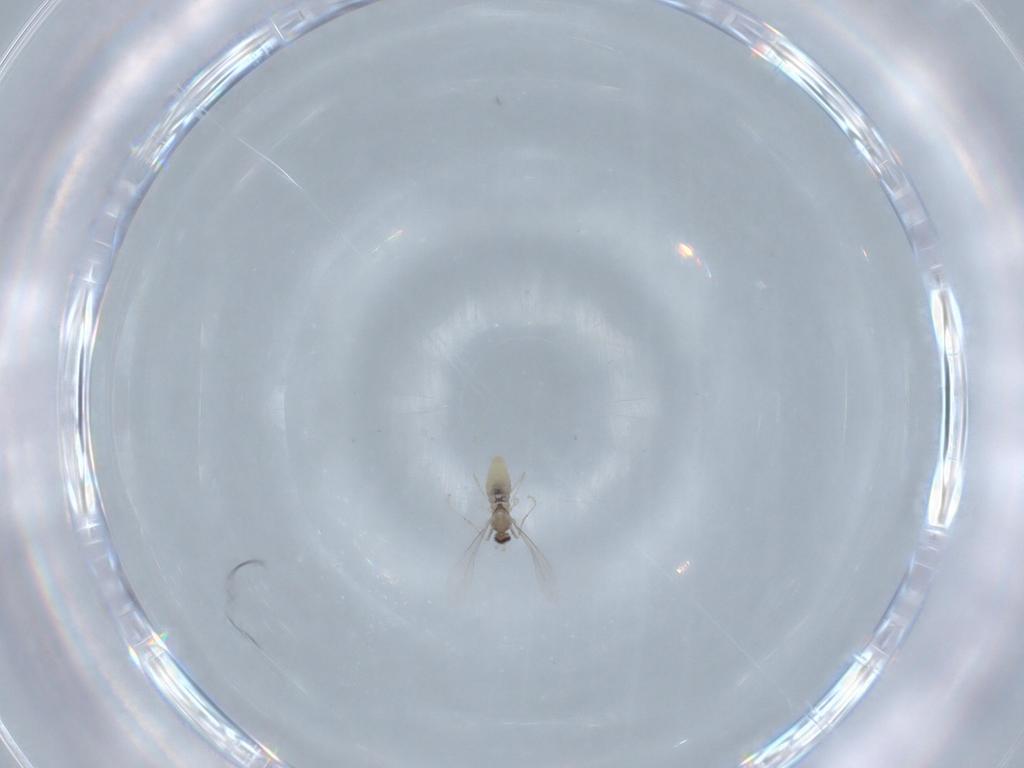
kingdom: Animalia
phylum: Arthropoda
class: Insecta
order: Diptera
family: Cecidomyiidae
